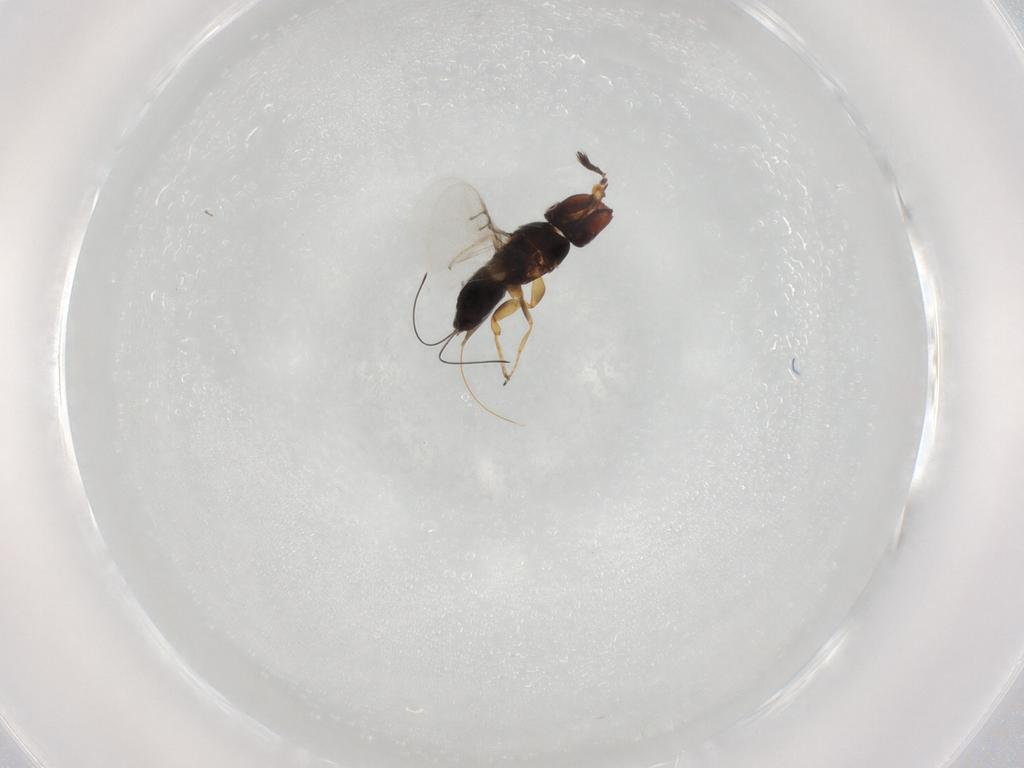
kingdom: Animalia
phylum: Arthropoda
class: Insecta
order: Hymenoptera
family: Agaonidae
